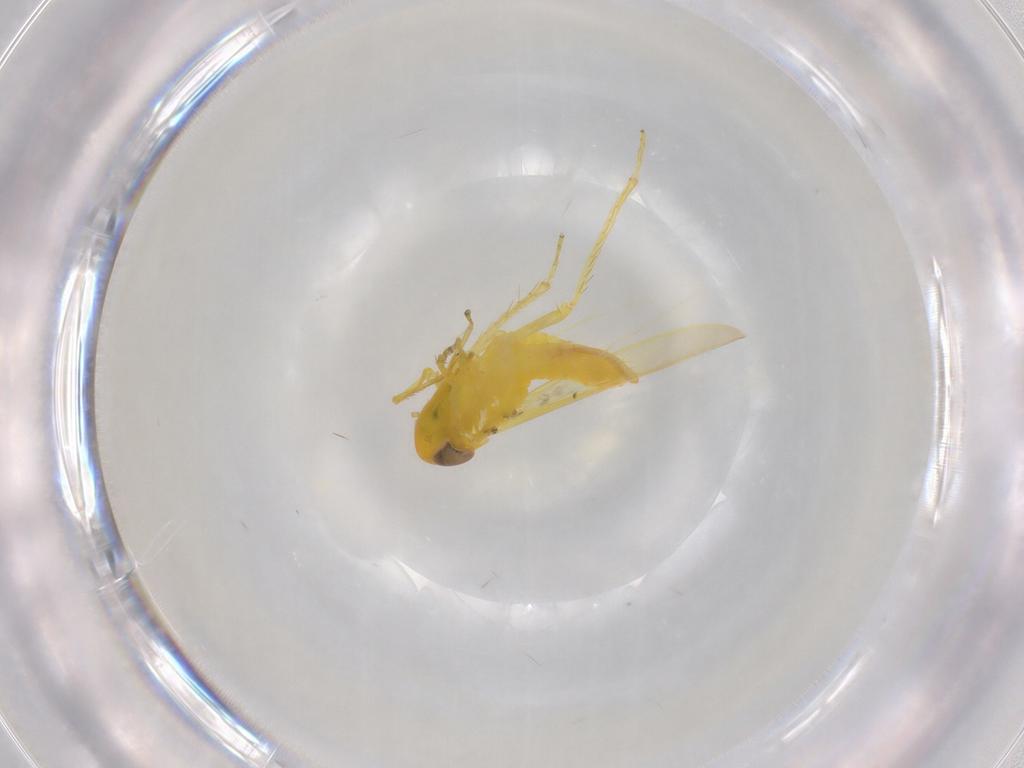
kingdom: Animalia
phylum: Arthropoda
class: Insecta
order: Hemiptera
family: Cicadellidae
